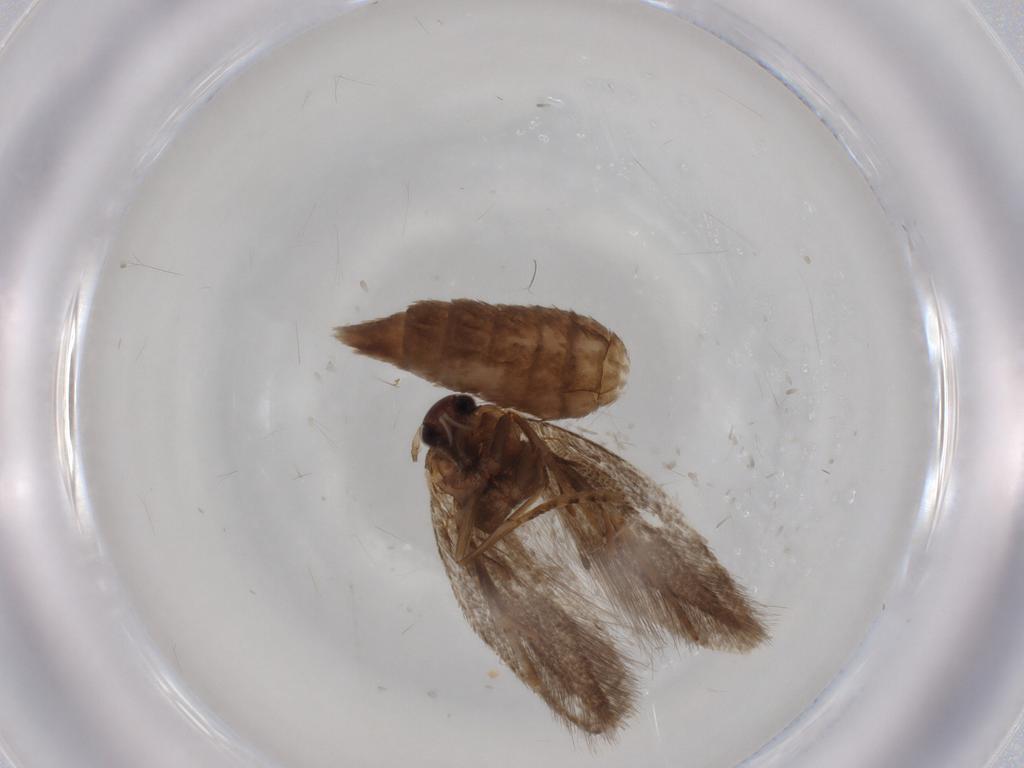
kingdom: Animalia
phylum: Arthropoda
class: Insecta
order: Lepidoptera
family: Elachistidae
